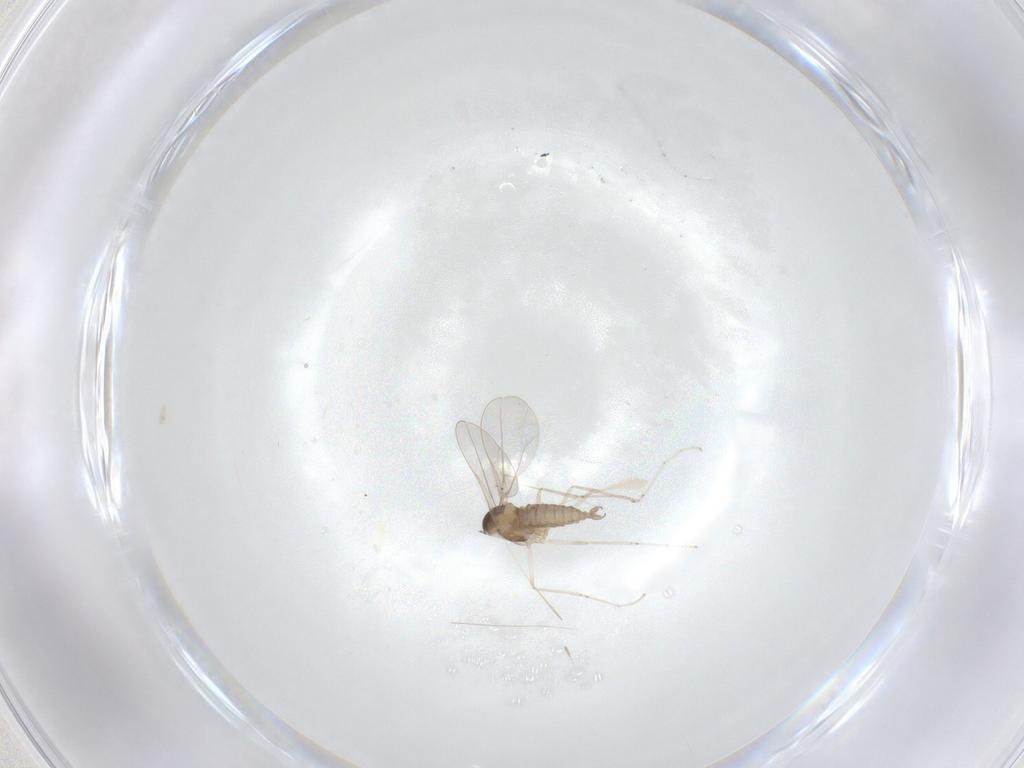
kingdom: Animalia
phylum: Arthropoda
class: Insecta
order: Diptera
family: Cecidomyiidae
